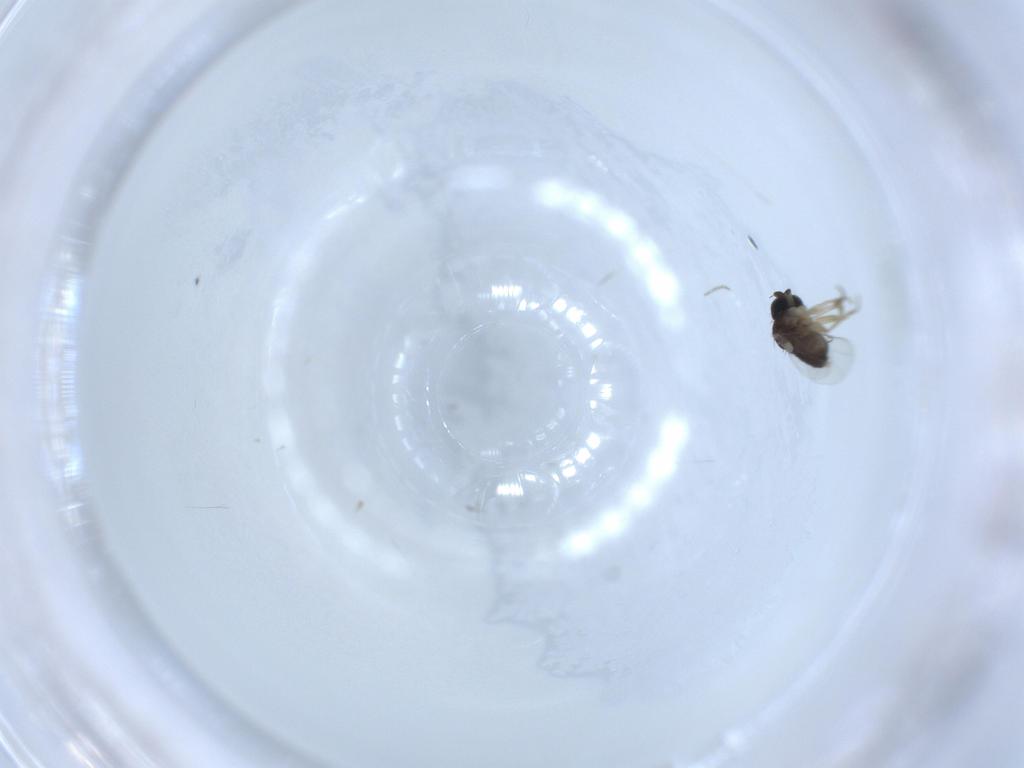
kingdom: Animalia
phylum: Arthropoda
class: Insecta
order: Diptera
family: Phoridae
